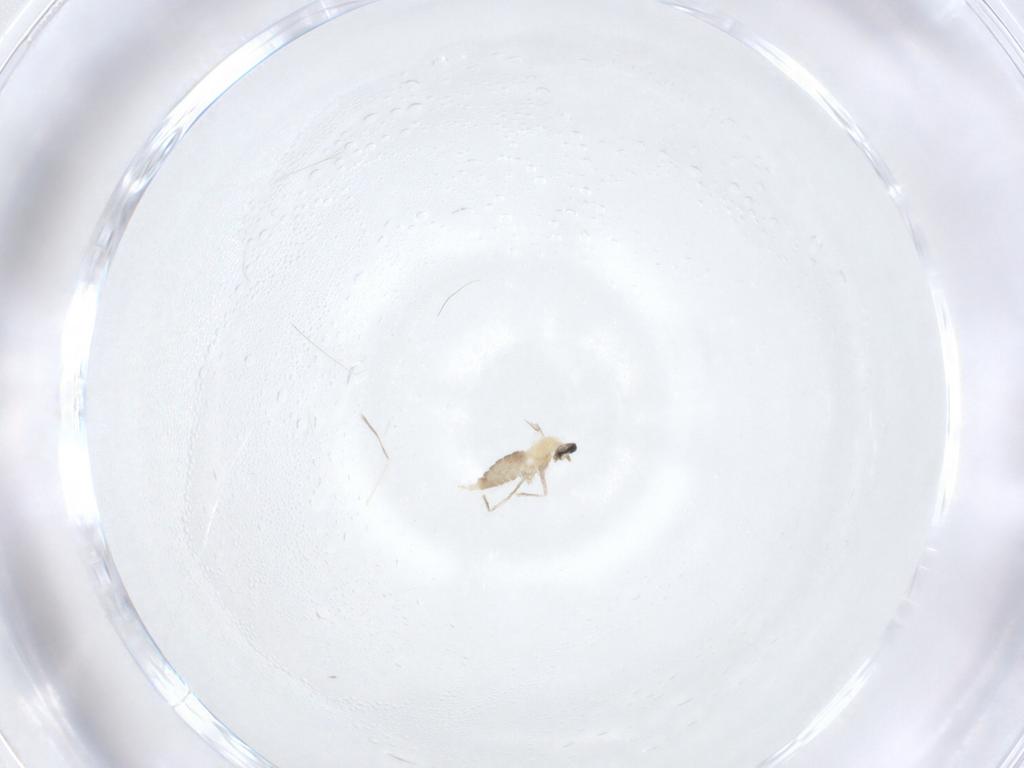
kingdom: Animalia
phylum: Arthropoda
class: Insecta
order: Diptera
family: Cecidomyiidae
